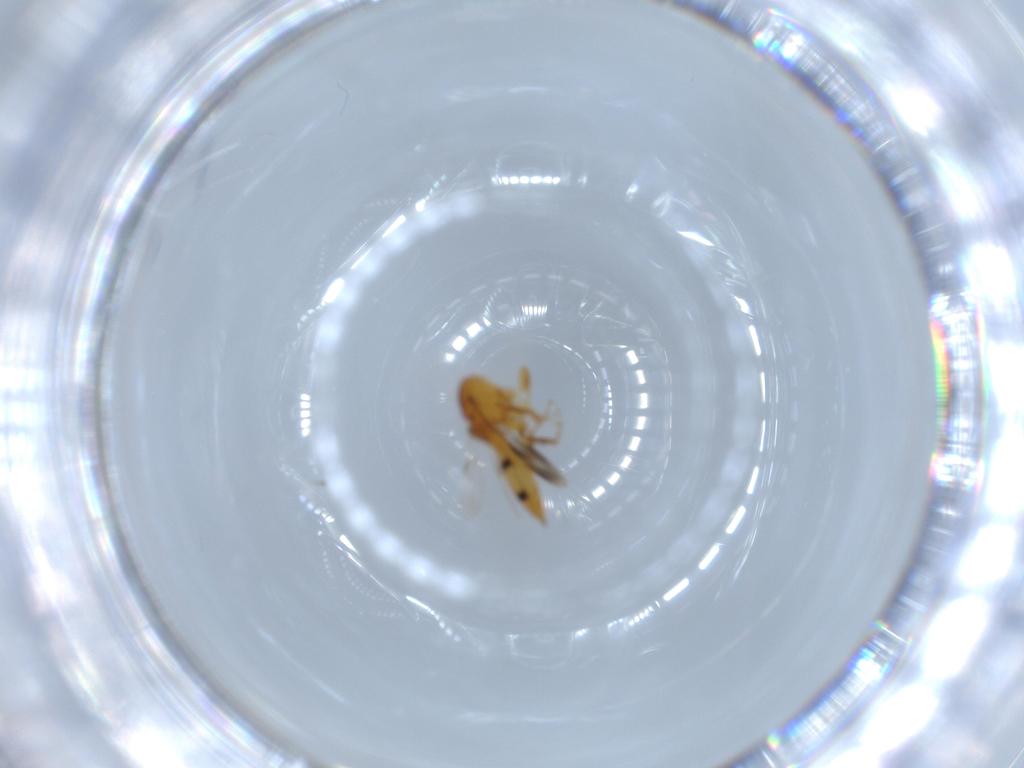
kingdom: Animalia
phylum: Arthropoda
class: Insecta
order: Hymenoptera
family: Scelionidae
